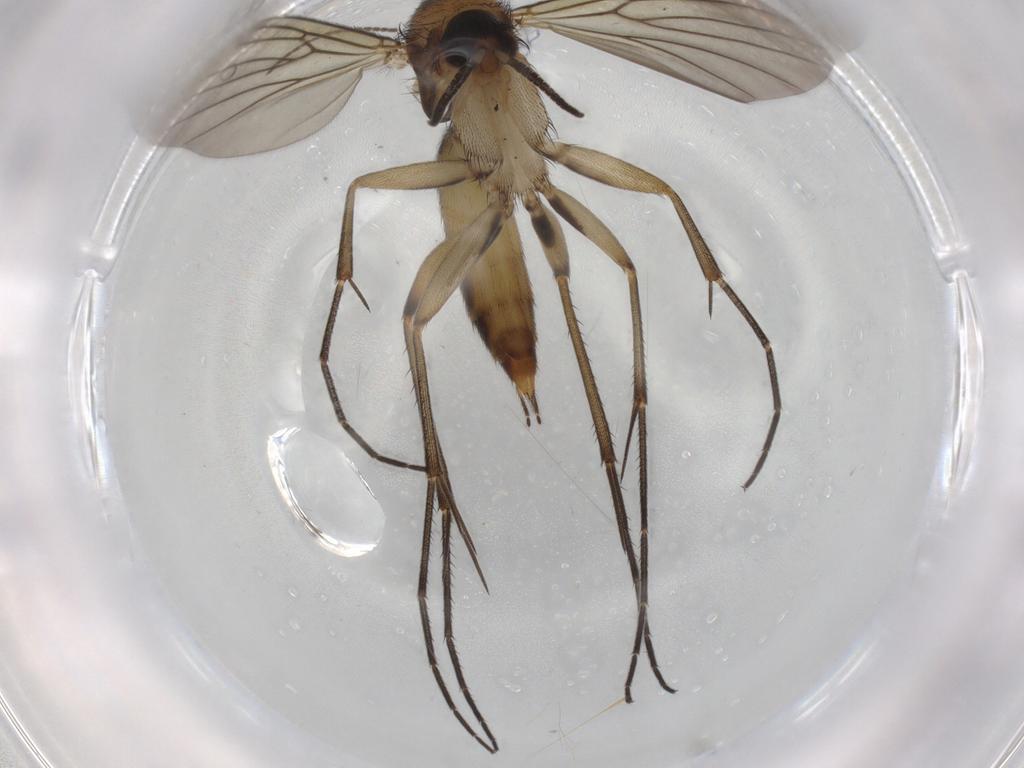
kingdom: Animalia
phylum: Arthropoda
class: Insecta
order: Diptera
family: Mycetophilidae
